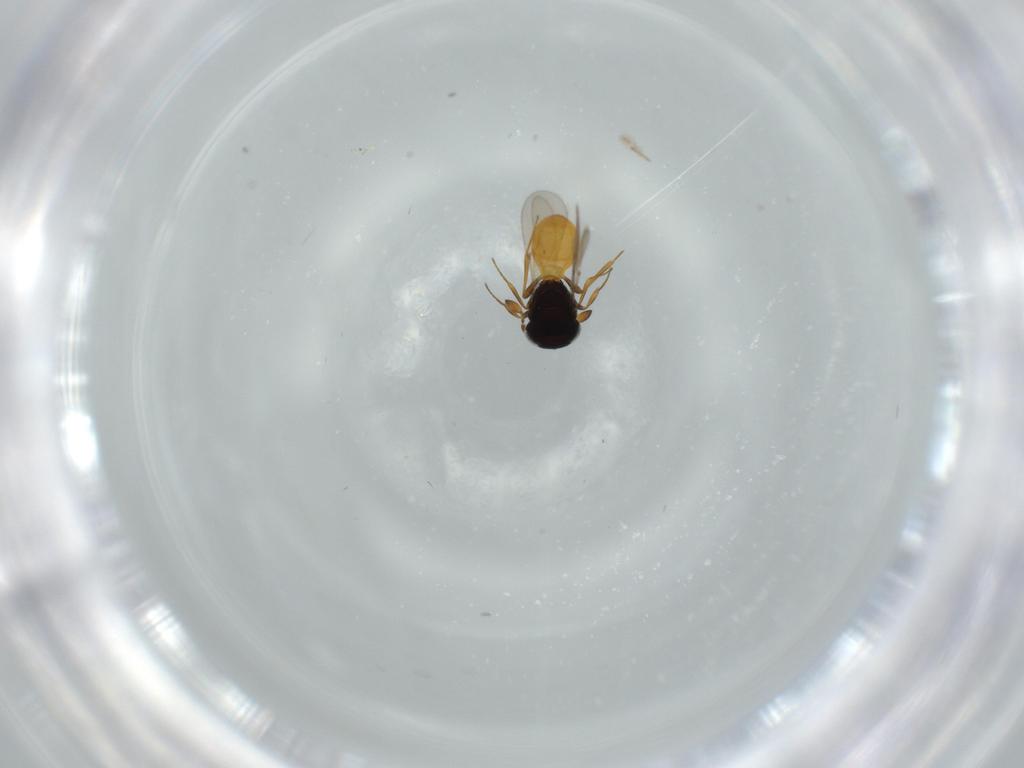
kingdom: Animalia
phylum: Arthropoda
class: Insecta
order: Hymenoptera
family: Scelionidae
